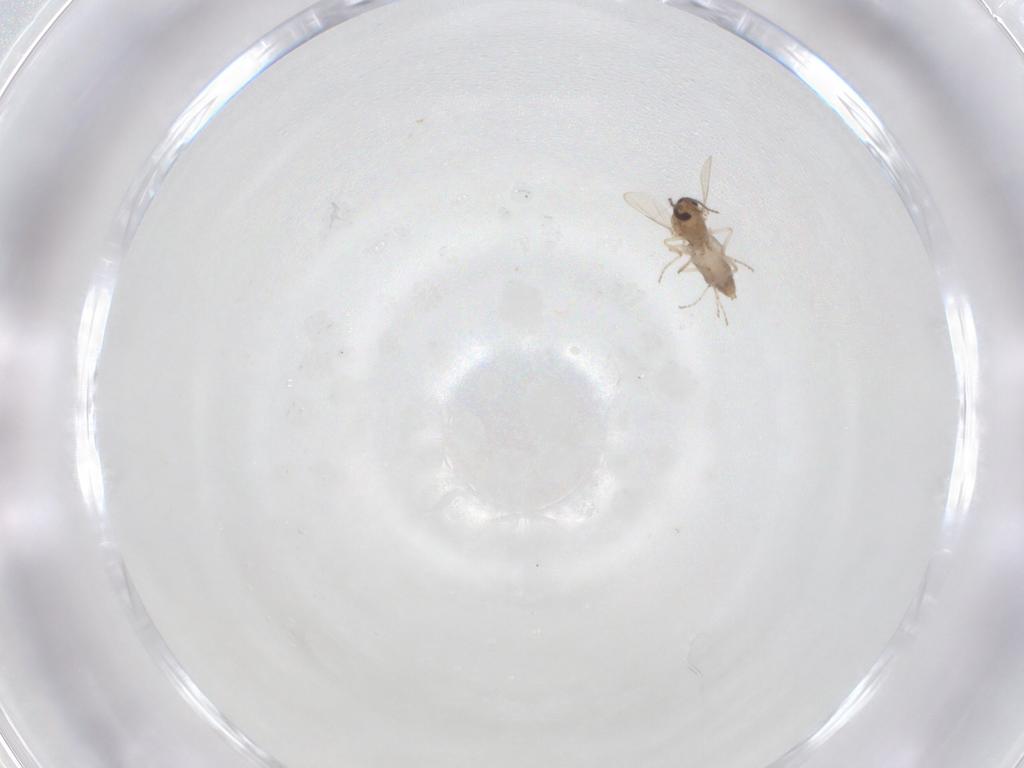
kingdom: Animalia
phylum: Arthropoda
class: Insecta
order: Diptera
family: Ceratopogonidae
